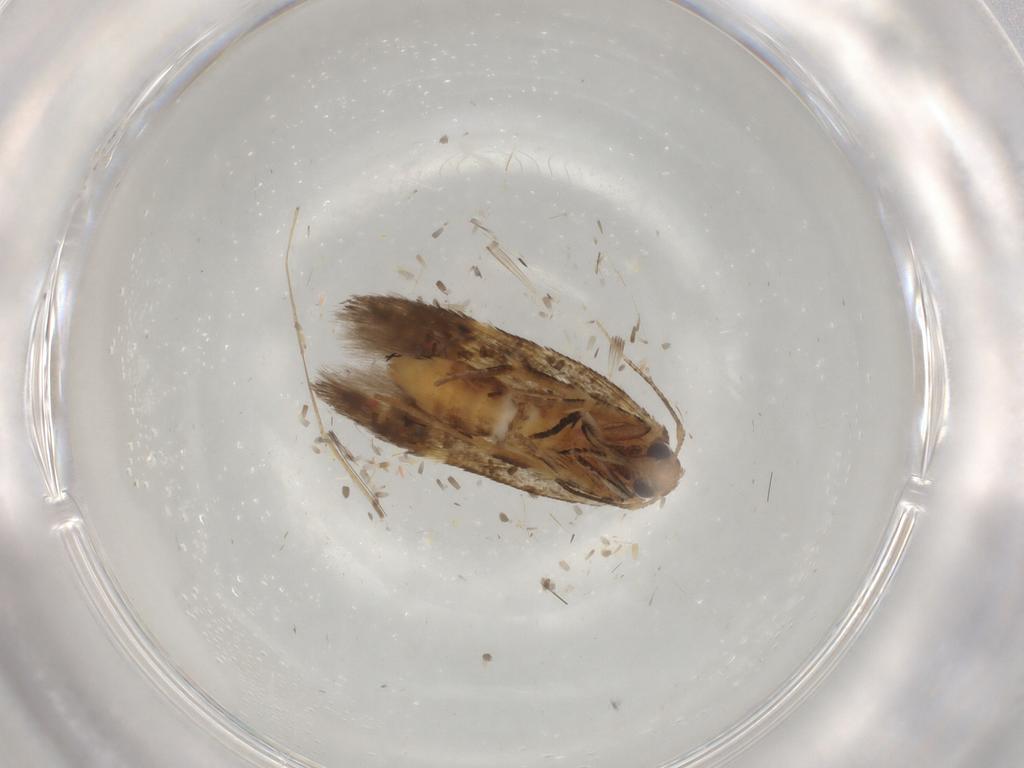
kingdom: Animalia
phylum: Arthropoda
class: Insecta
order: Lepidoptera
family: Cosmopterigidae
